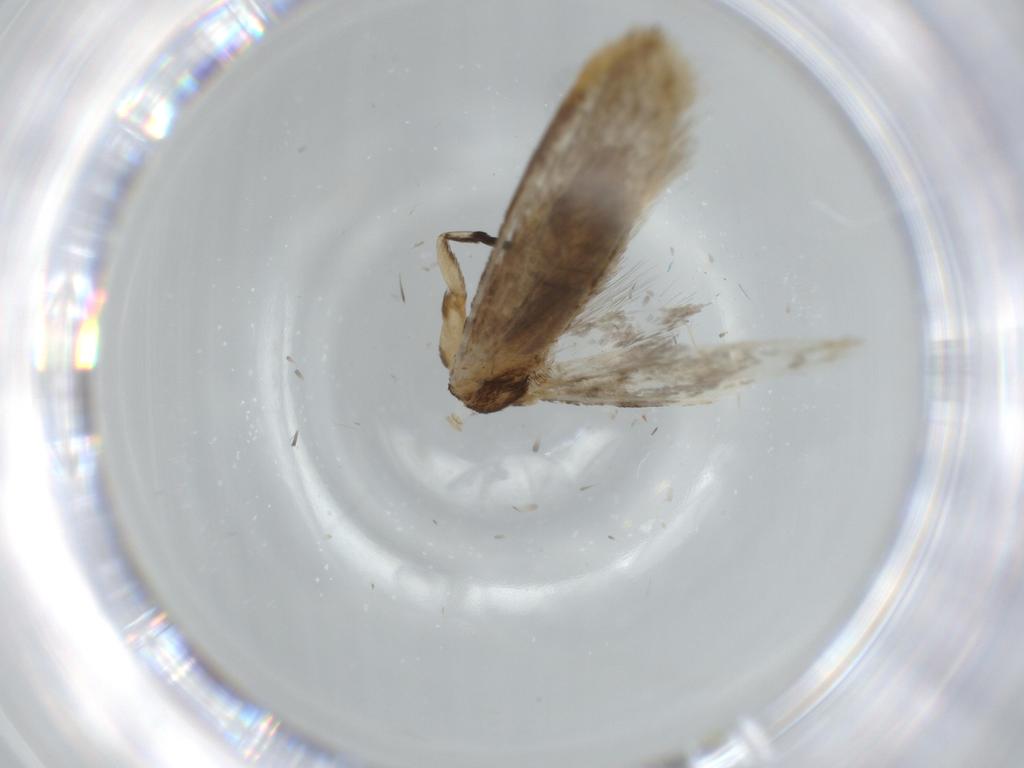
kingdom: Animalia
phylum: Arthropoda
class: Insecta
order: Lepidoptera
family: Tineidae
